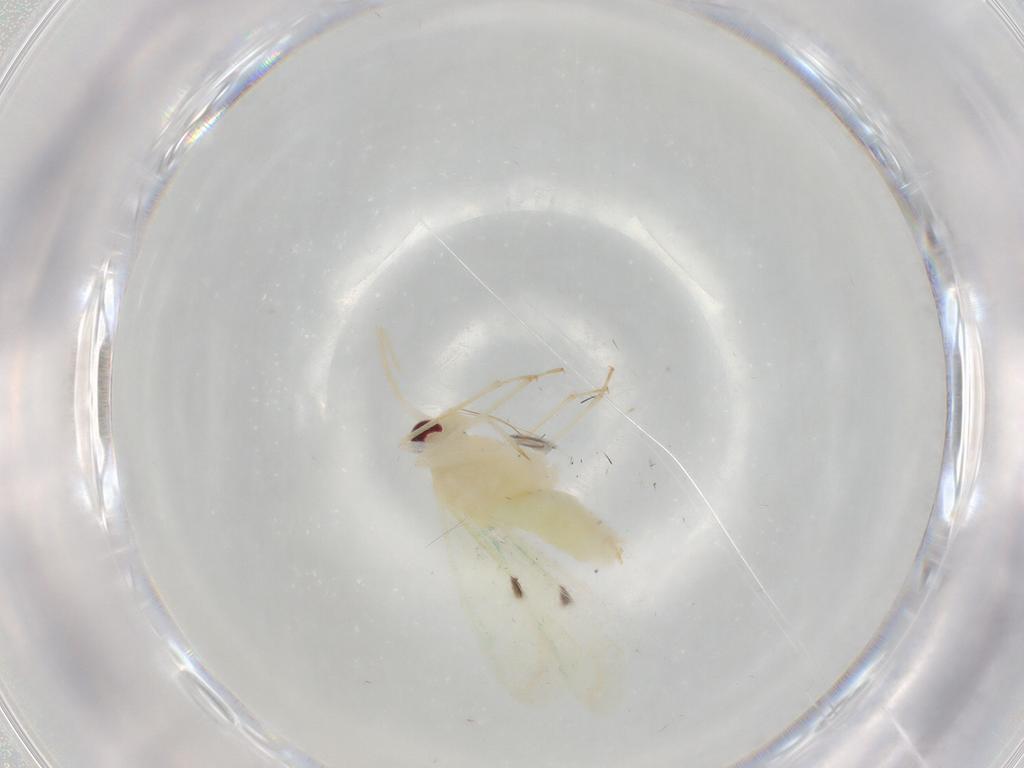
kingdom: Animalia
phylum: Arthropoda
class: Insecta
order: Hemiptera
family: Miridae
